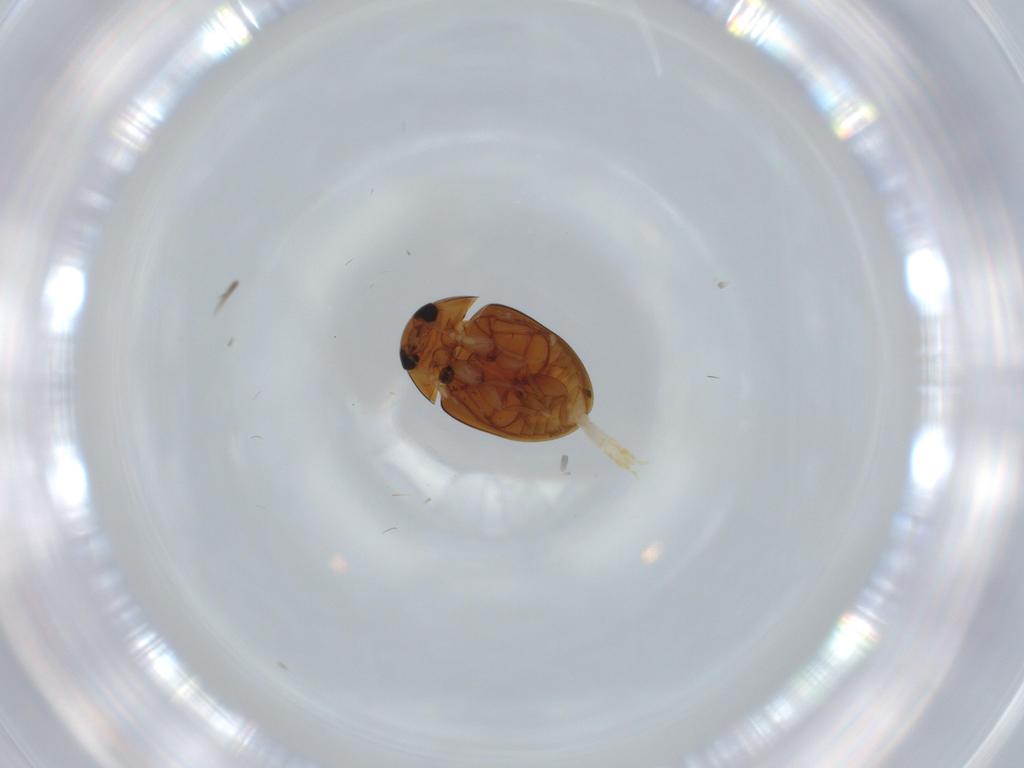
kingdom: Animalia
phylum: Arthropoda
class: Insecta
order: Coleoptera
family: Phalacridae
